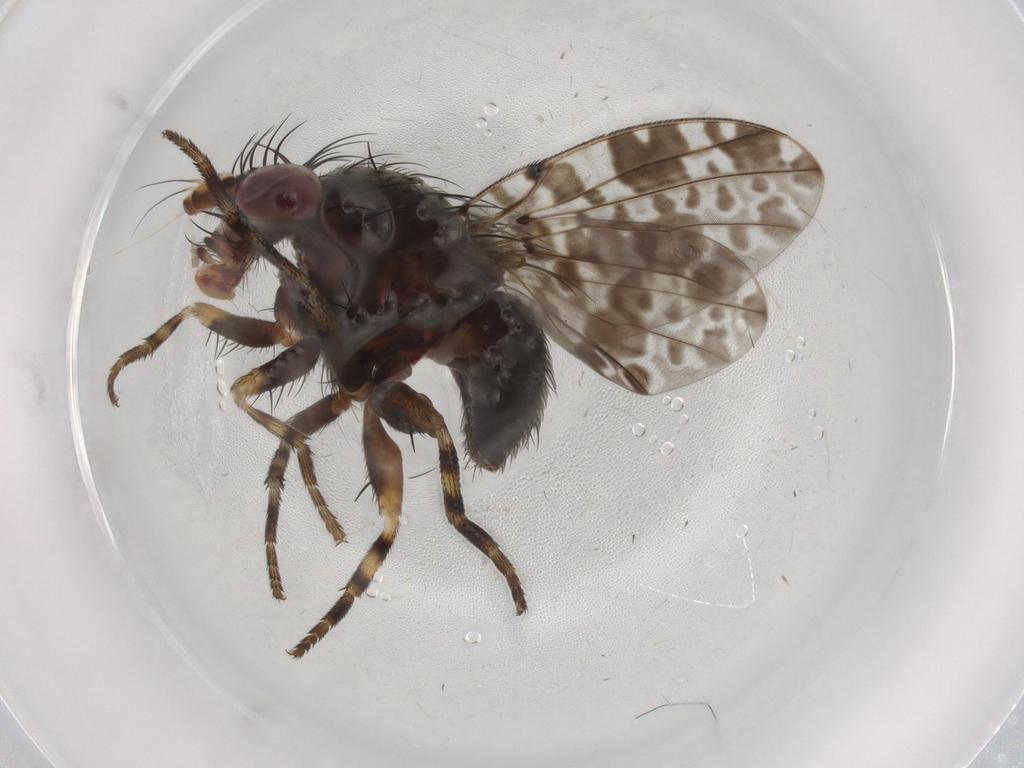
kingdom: Animalia
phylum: Arthropoda
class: Insecta
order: Diptera
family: Odiniidae
